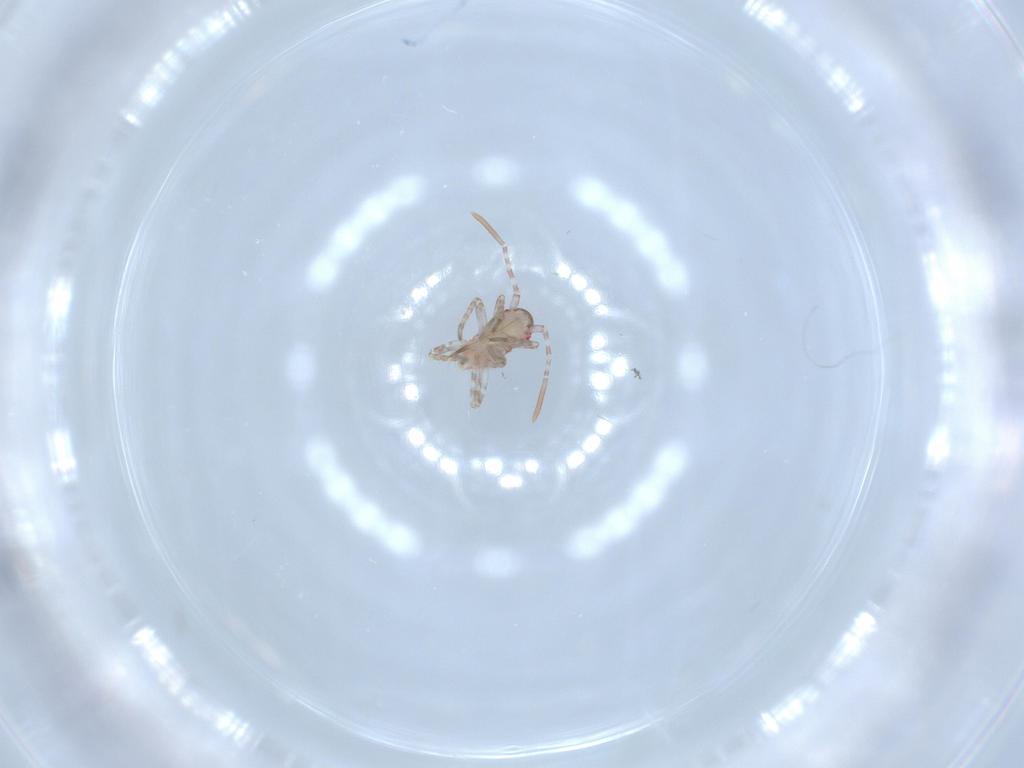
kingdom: Animalia
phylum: Arthropoda
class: Insecta
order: Hemiptera
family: Miridae
